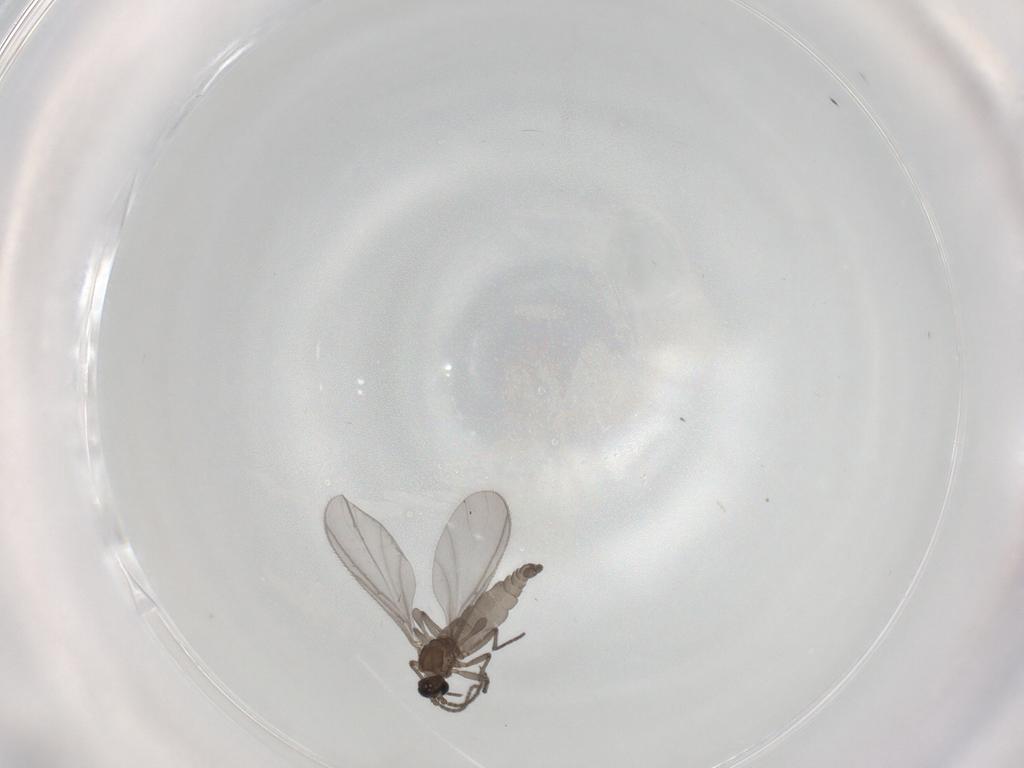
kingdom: Animalia
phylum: Arthropoda
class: Insecta
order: Diptera
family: Sciaridae
